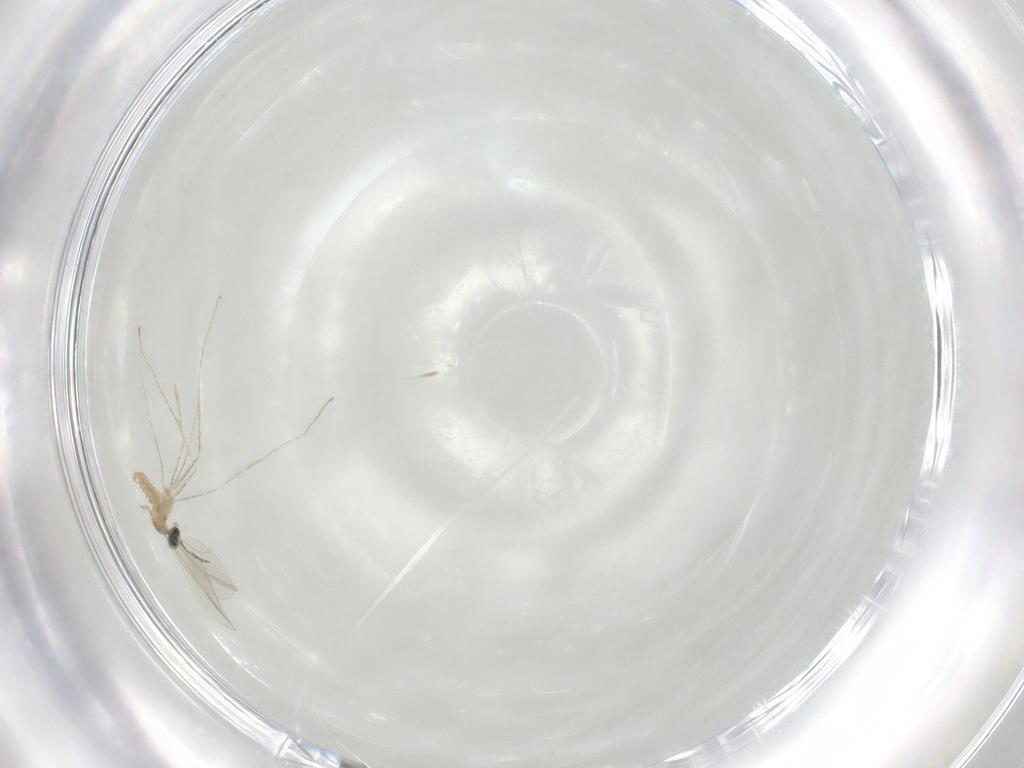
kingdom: Animalia
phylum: Arthropoda
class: Insecta
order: Diptera
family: Cecidomyiidae
